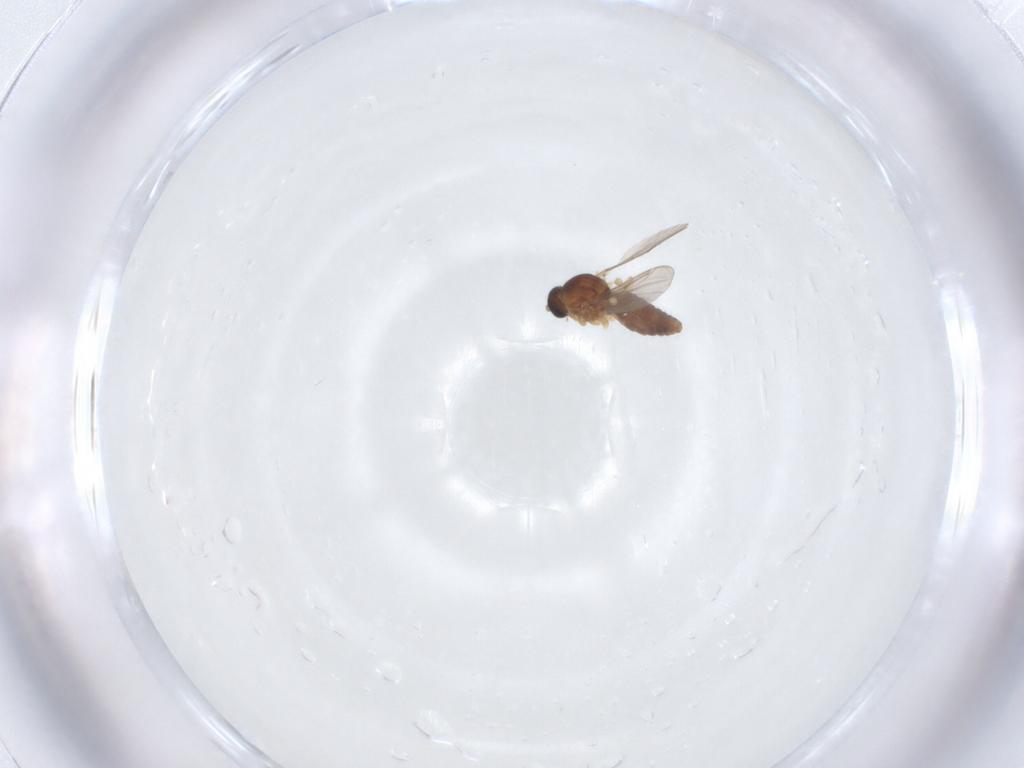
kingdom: Animalia
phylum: Arthropoda
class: Insecta
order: Diptera
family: Ceratopogonidae
